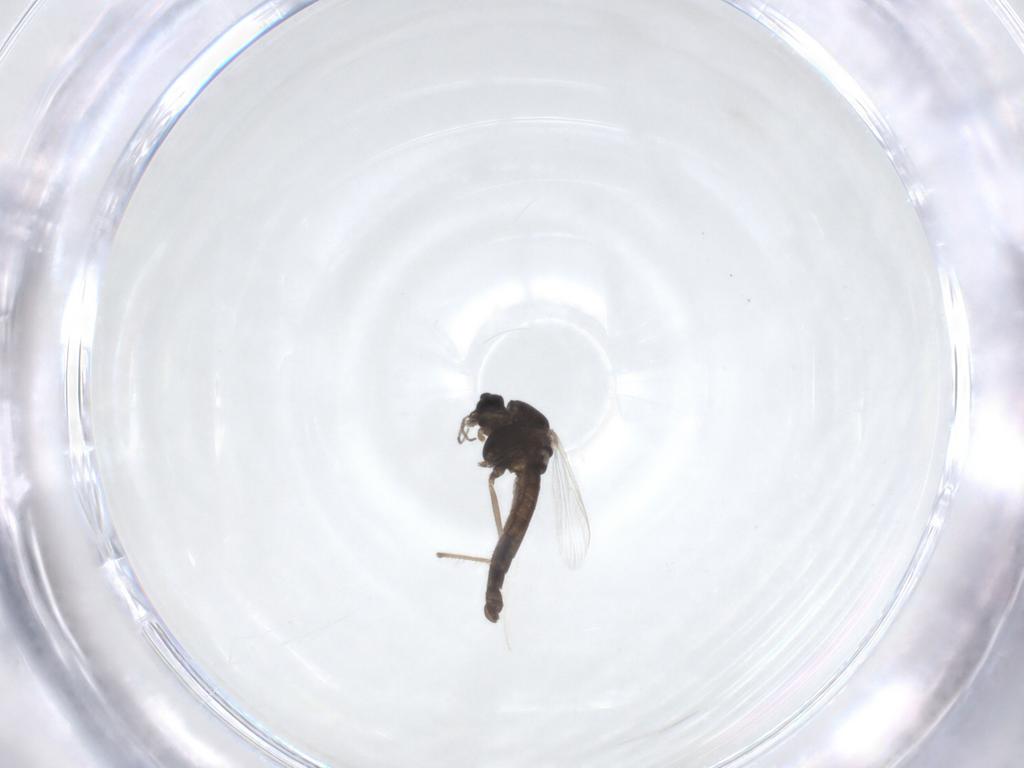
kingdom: Animalia
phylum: Arthropoda
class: Insecta
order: Diptera
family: Chironomidae
